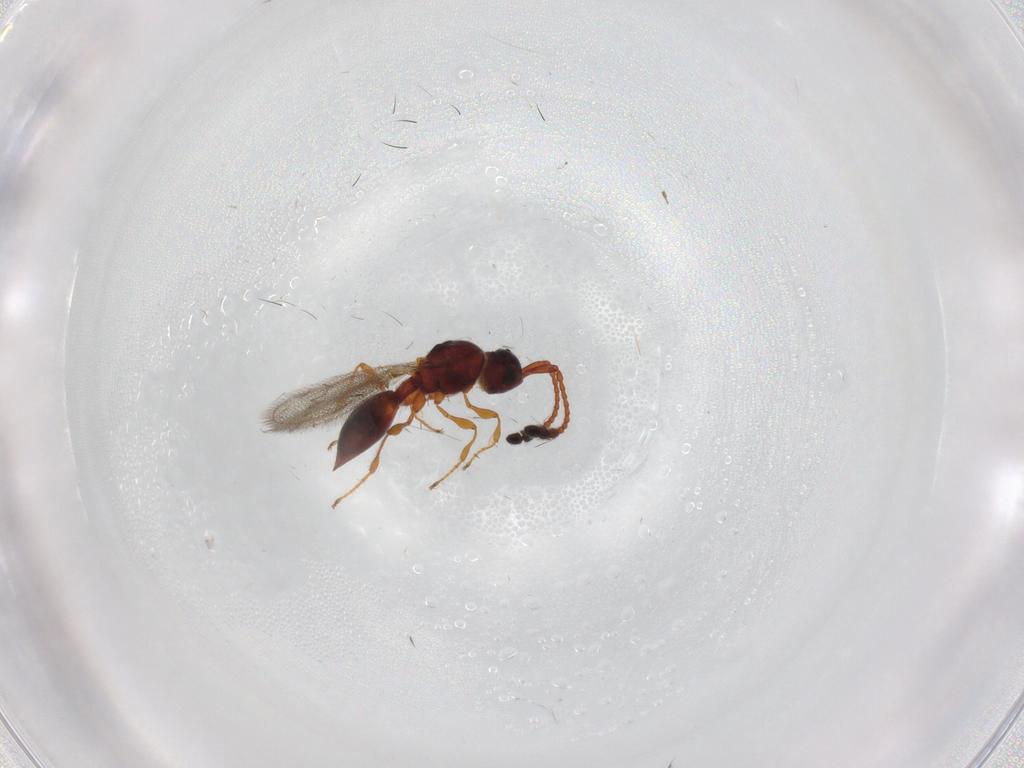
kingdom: Animalia
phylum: Arthropoda
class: Insecta
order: Hymenoptera
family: Diapriidae
